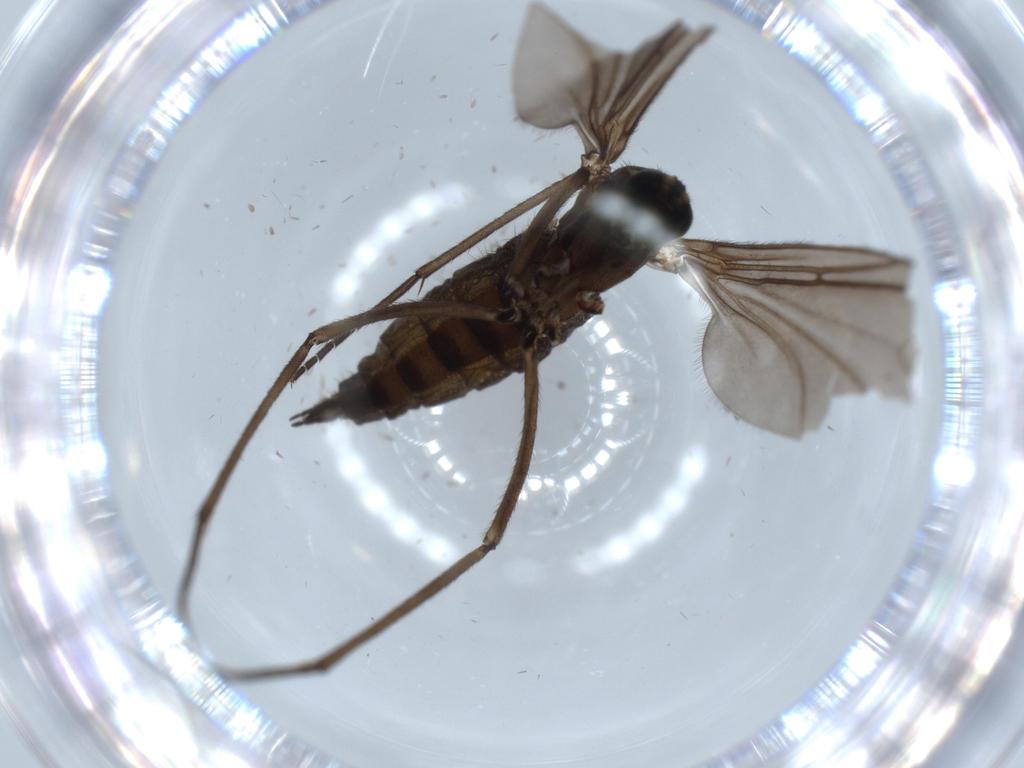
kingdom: Animalia
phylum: Arthropoda
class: Insecta
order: Diptera
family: Sciaridae
